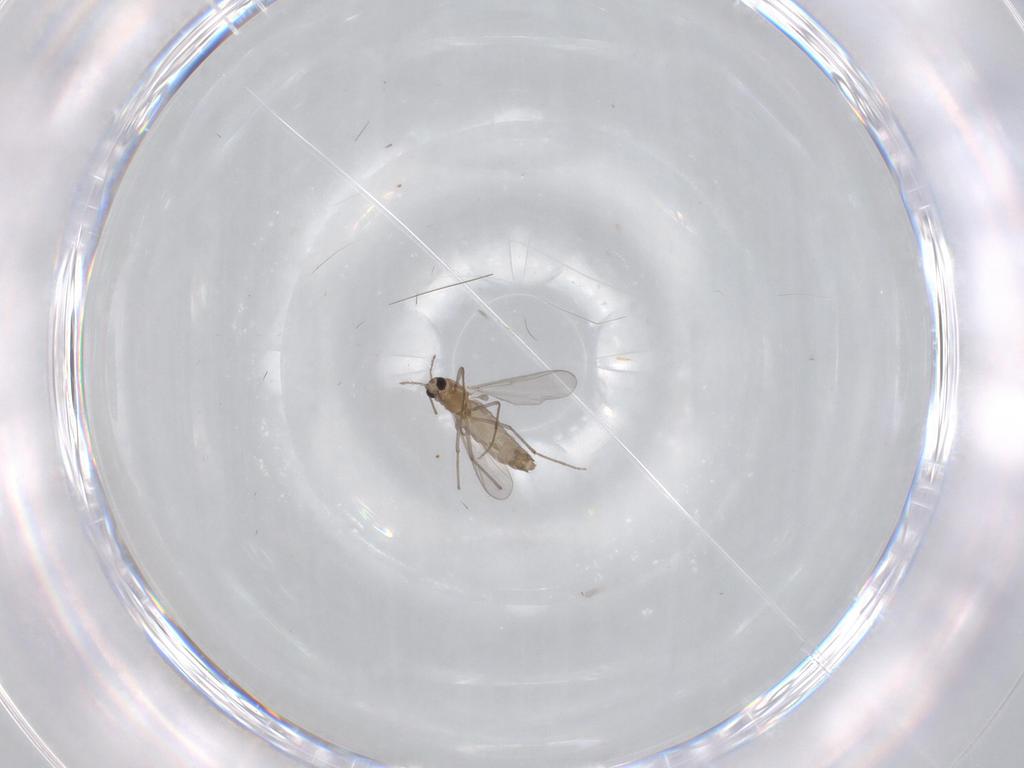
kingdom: Animalia
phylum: Arthropoda
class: Insecta
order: Diptera
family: Chironomidae
